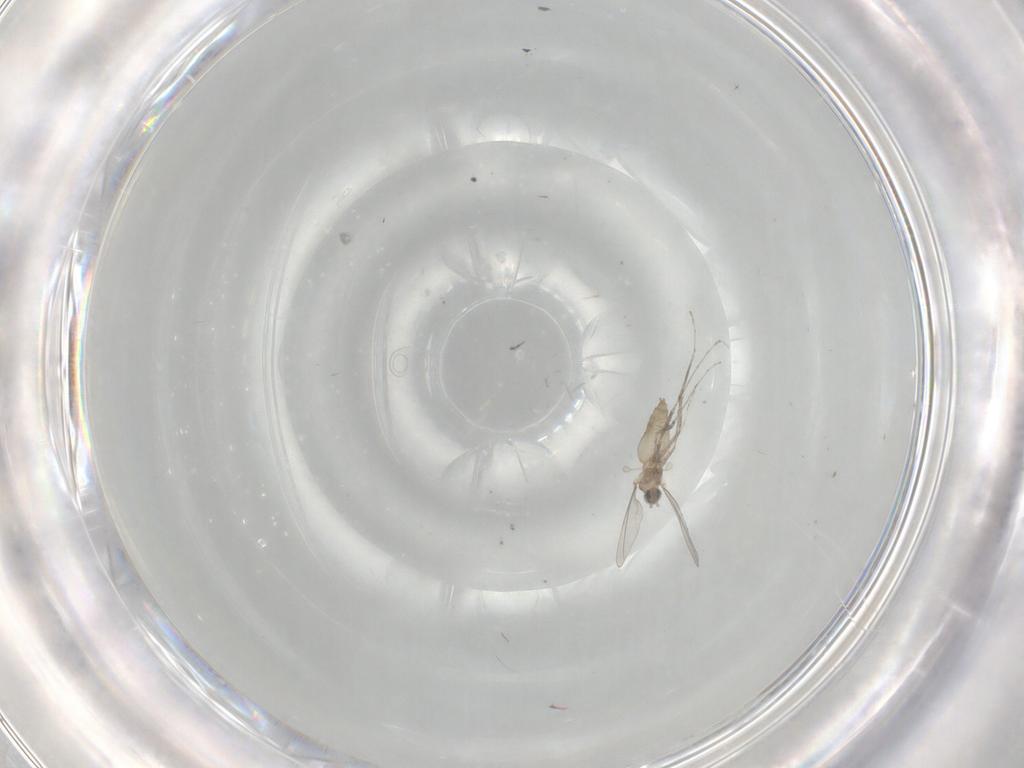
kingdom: Animalia
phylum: Arthropoda
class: Insecta
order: Diptera
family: Cecidomyiidae
